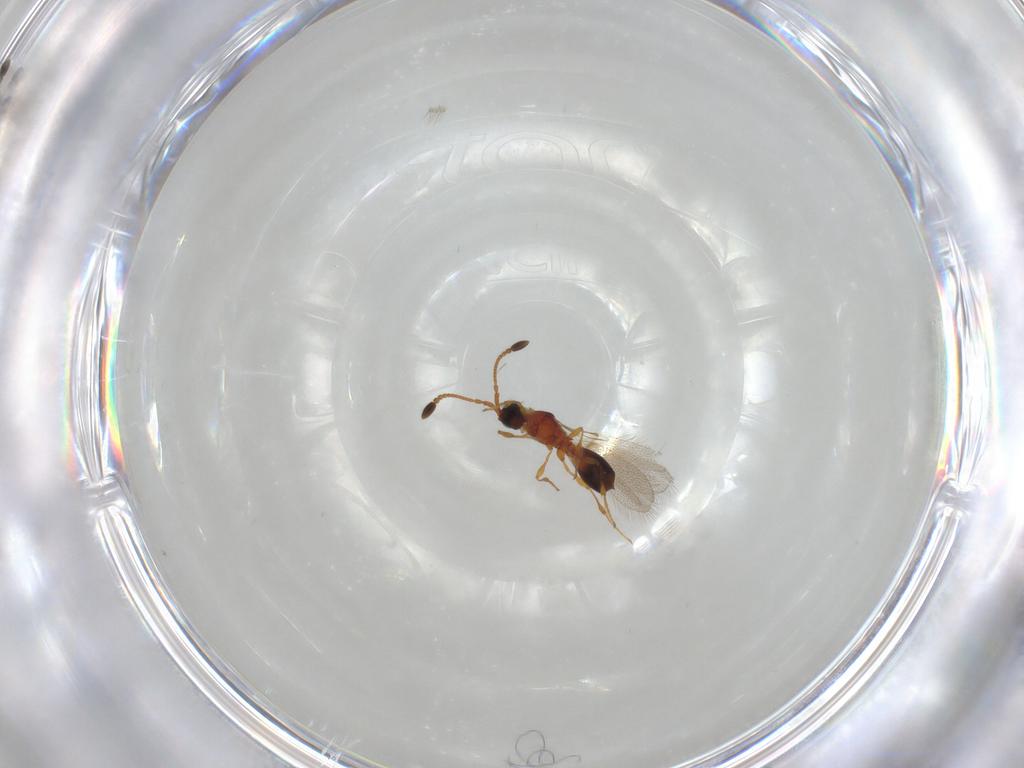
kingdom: Animalia
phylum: Arthropoda
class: Insecta
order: Hymenoptera
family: Diapriidae
